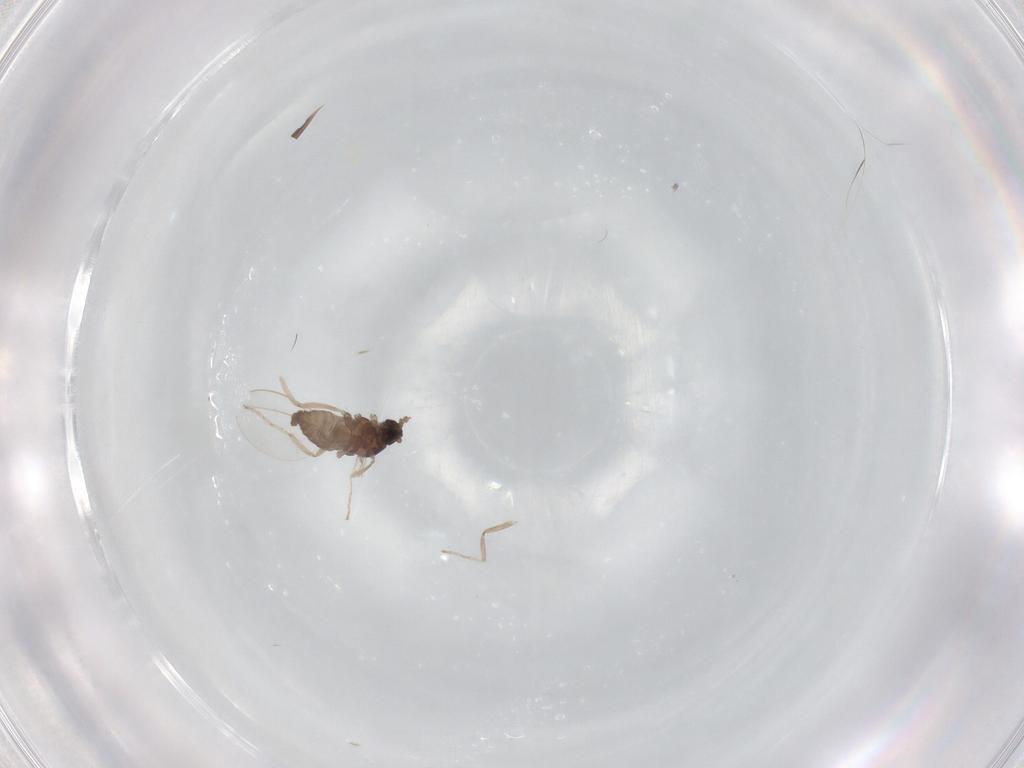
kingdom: Animalia
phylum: Arthropoda
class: Insecta
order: Diptera
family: Cecidomyiidae
